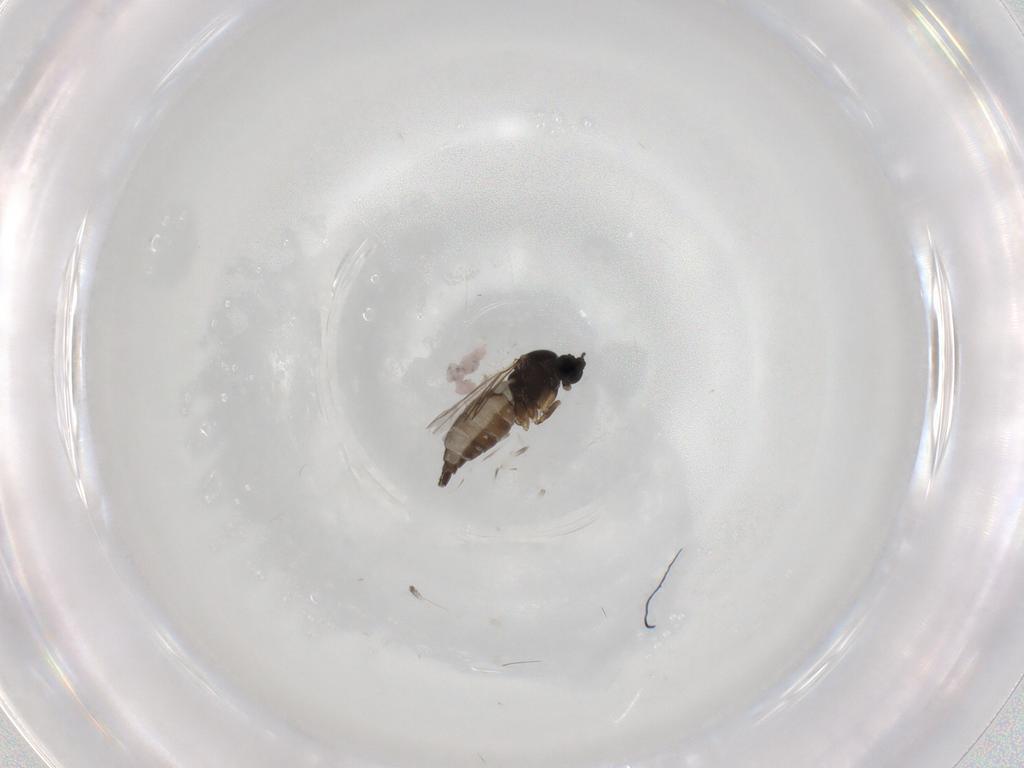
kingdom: Animalia
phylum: Arthropoda
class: Insecta
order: Diptera
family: Sciaridae
